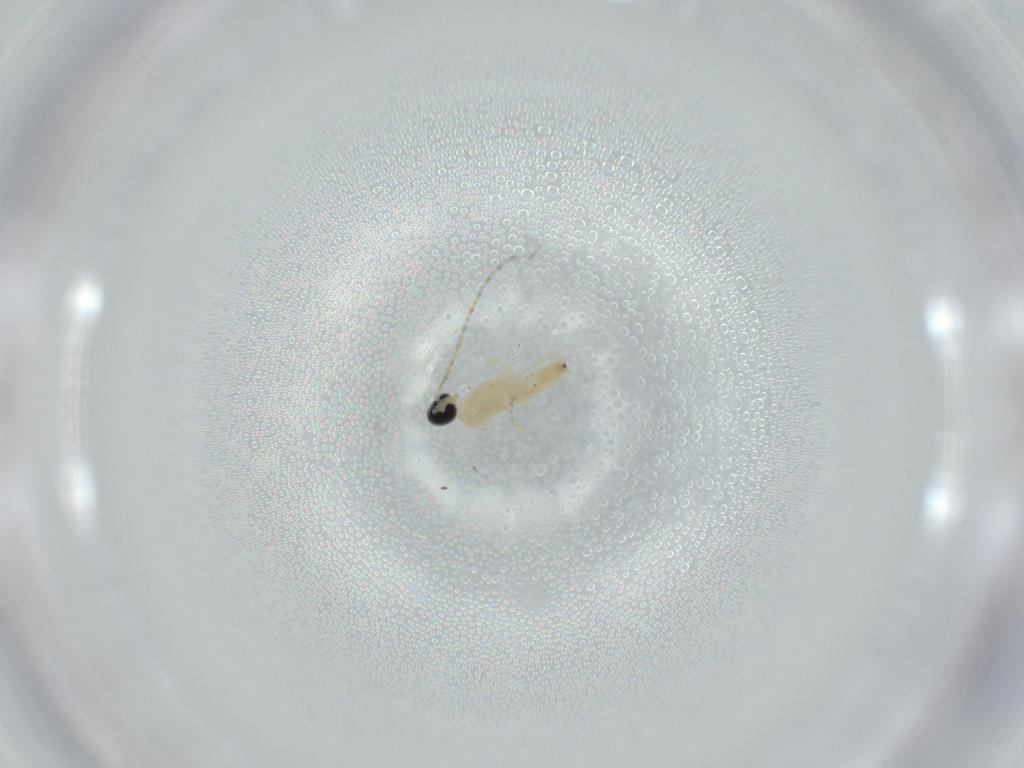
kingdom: Animalia
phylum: Arthropoda
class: Insecta
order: Diptera
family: Cecidomyiidae
